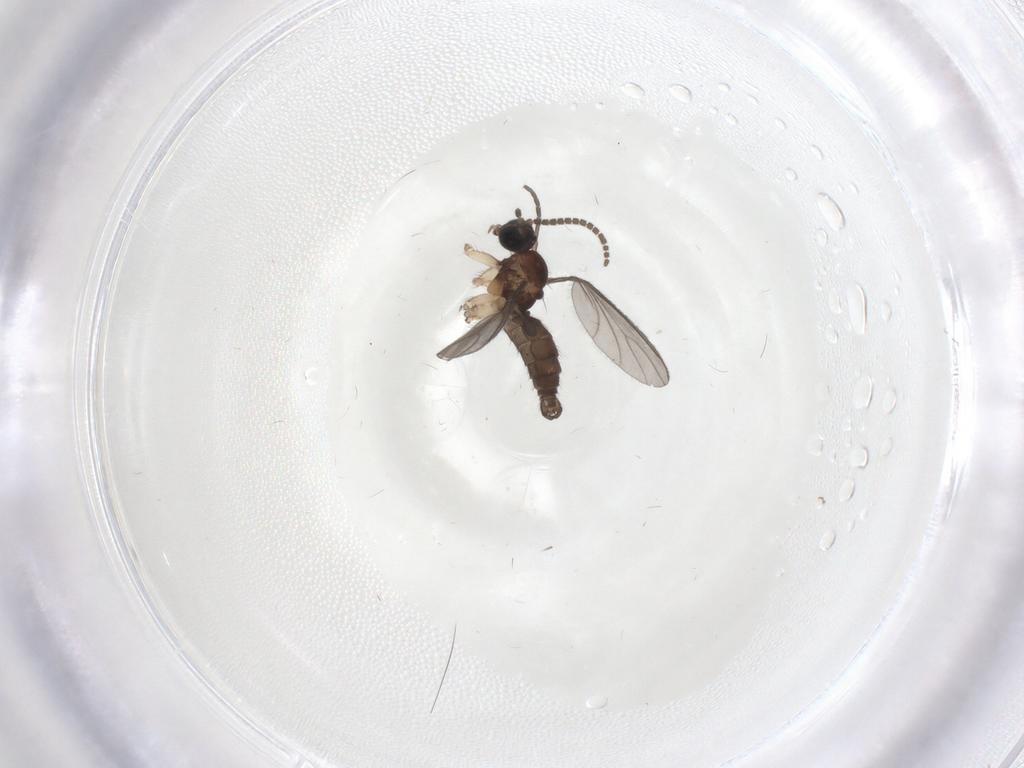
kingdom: Animalia
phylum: Arthropoda
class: Insecta
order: Diptera
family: Sciaridae
